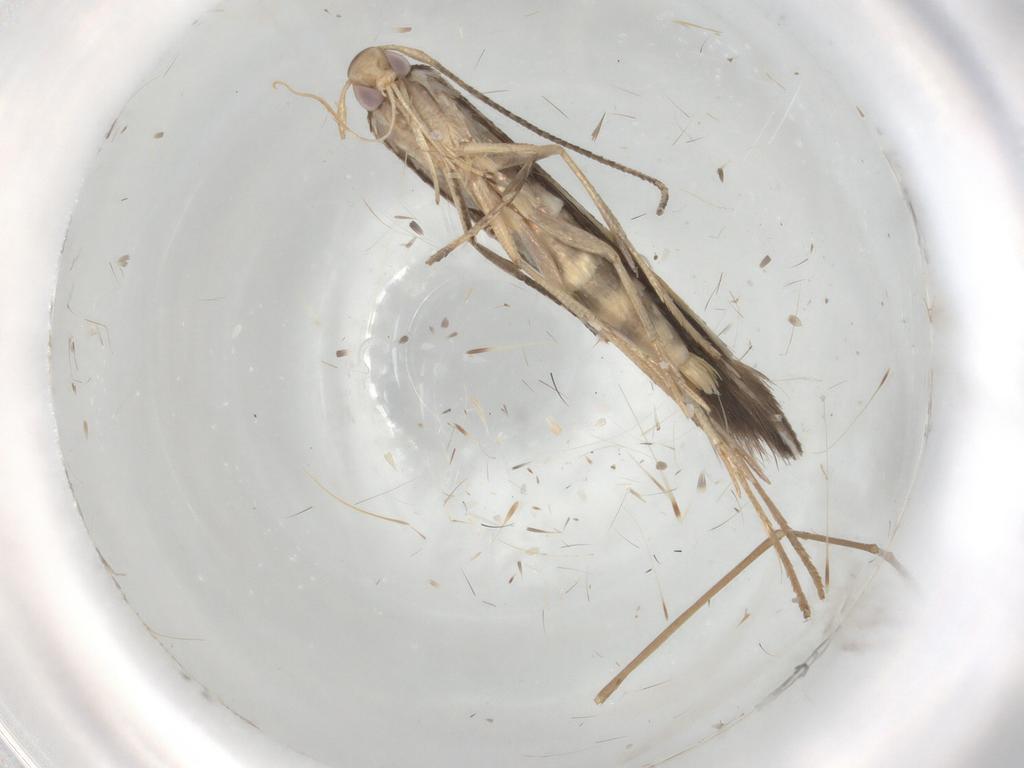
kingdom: Animalia
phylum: Arthropoda
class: Insecta
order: Lepidoptera
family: Cosmopterigidae
